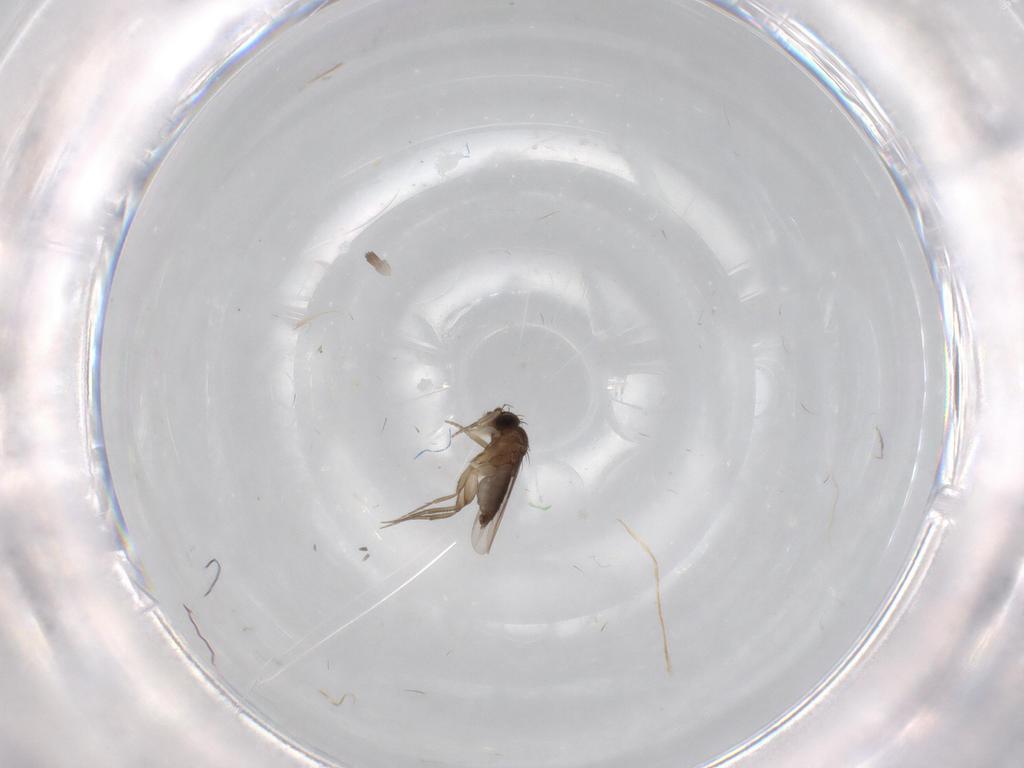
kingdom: Animalia
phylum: Arthropoda
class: Insecta
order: Diptera
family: Phoridae
